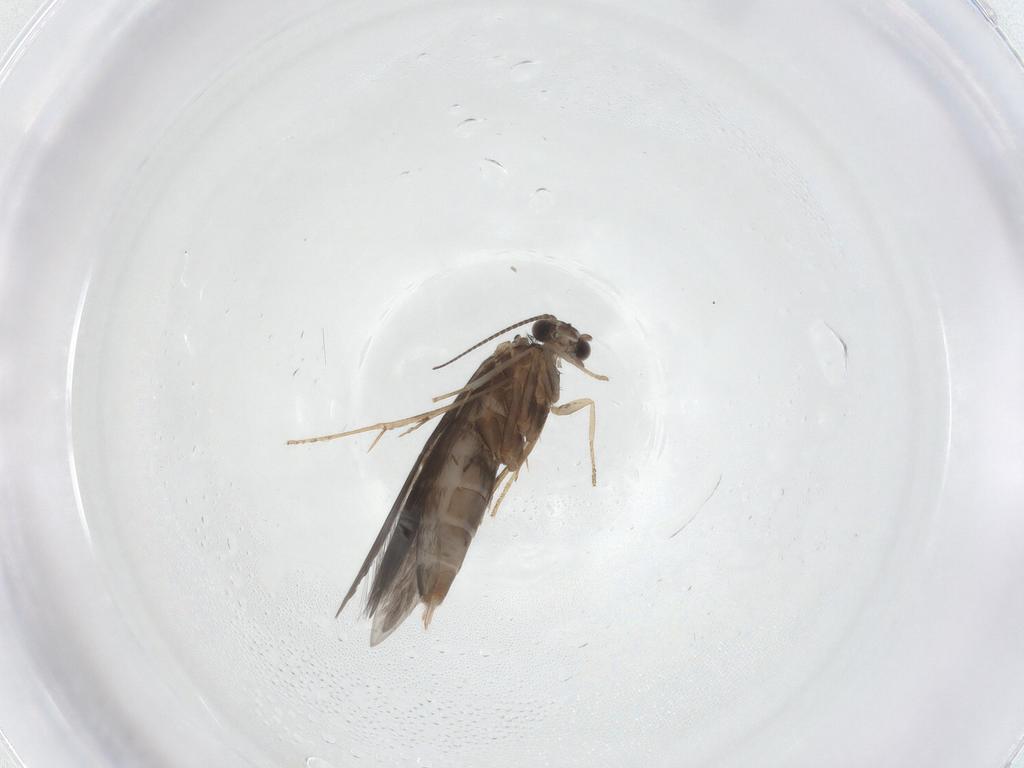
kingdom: Animalia
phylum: Arthropoda
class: Insecta
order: Trichoptera
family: Hydroptilidae
